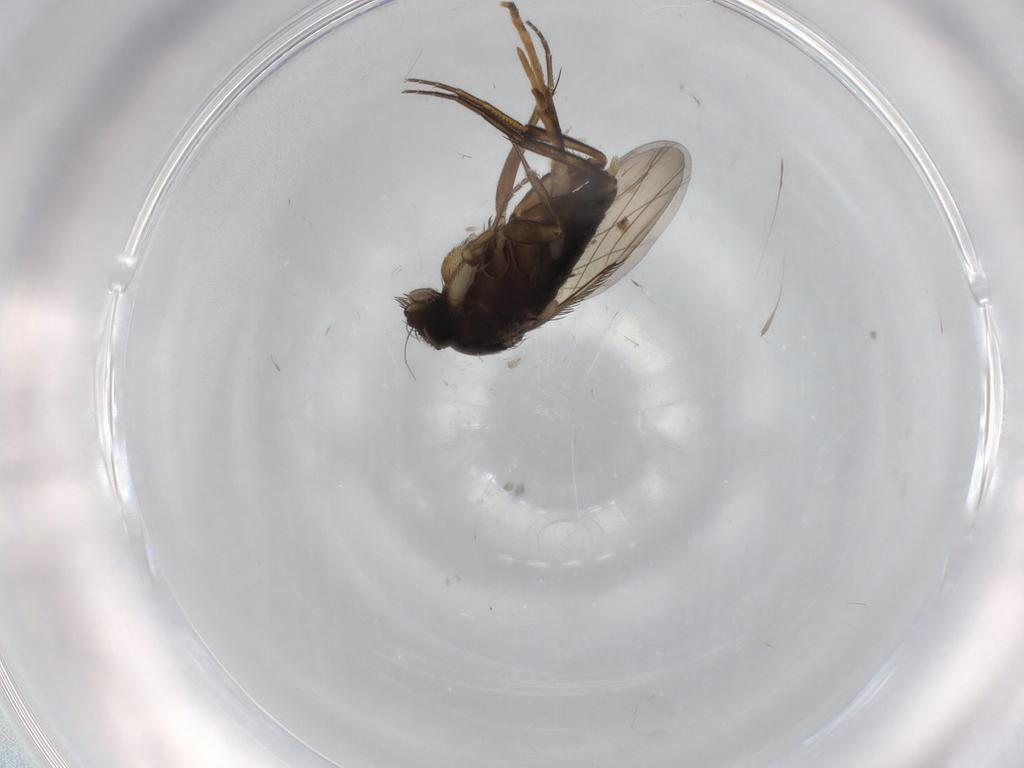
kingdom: Animalia
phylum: Arthropoda
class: Insecta
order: Diptera
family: Phoridae
